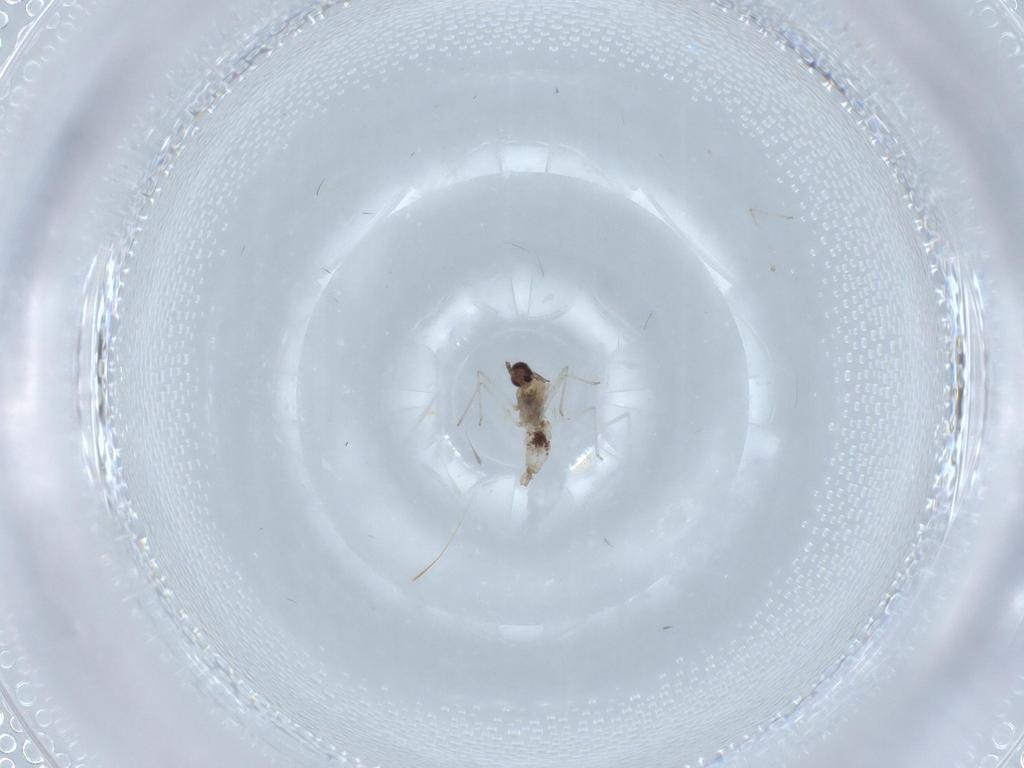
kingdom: Animalia
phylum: Arthropoda
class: Insecta
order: Diptera
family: Cecidomyiidae
